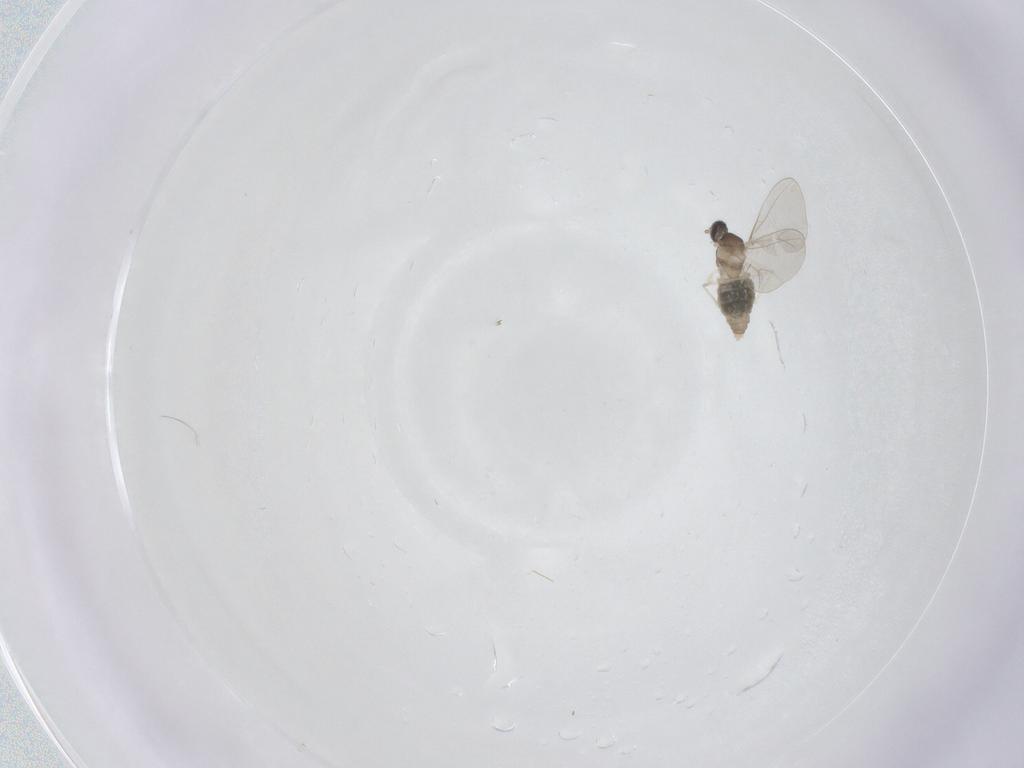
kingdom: Animalia
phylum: Arthropoda
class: Insecta
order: Diptera
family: Cecidomyiidae
